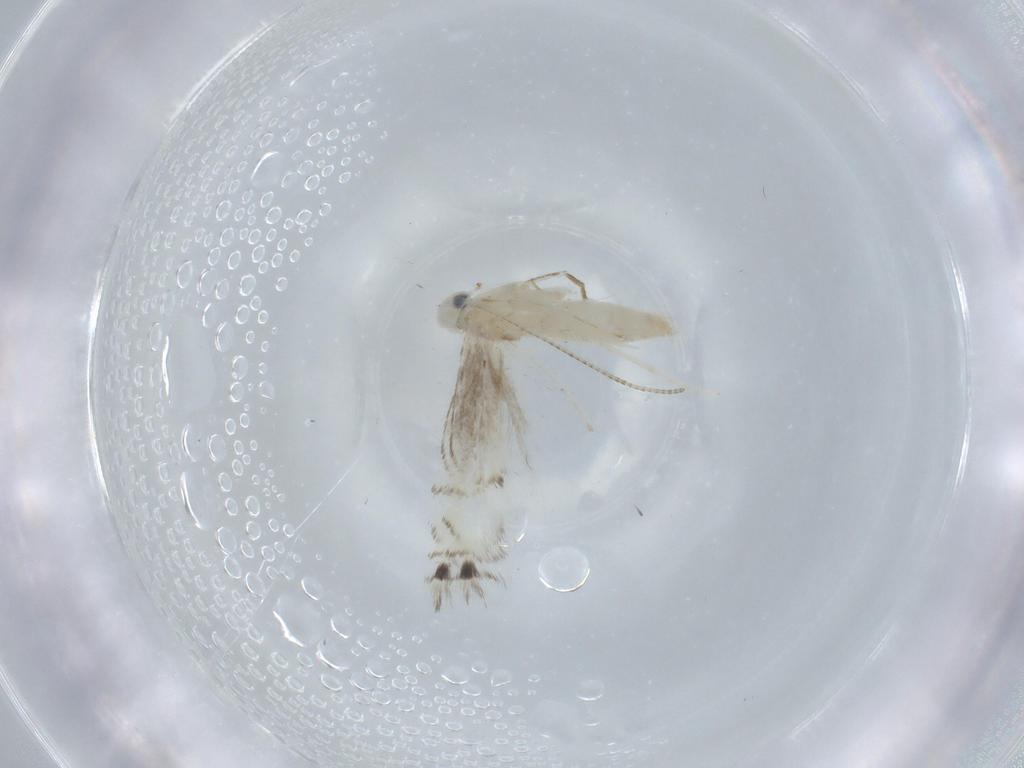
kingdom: Animalia
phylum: Arthropoda
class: Insecta
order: Lepidoptera
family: Gracillariidae
